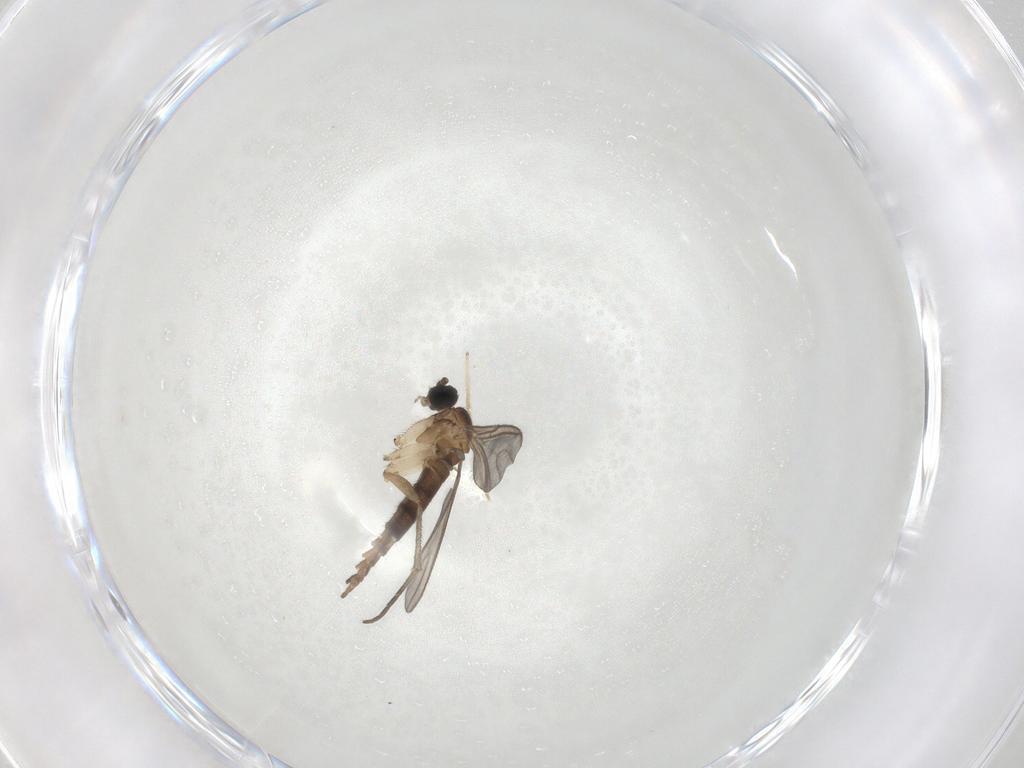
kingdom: Animalia
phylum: Arthropoda
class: Insecta
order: Diptera
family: Sciaridae
